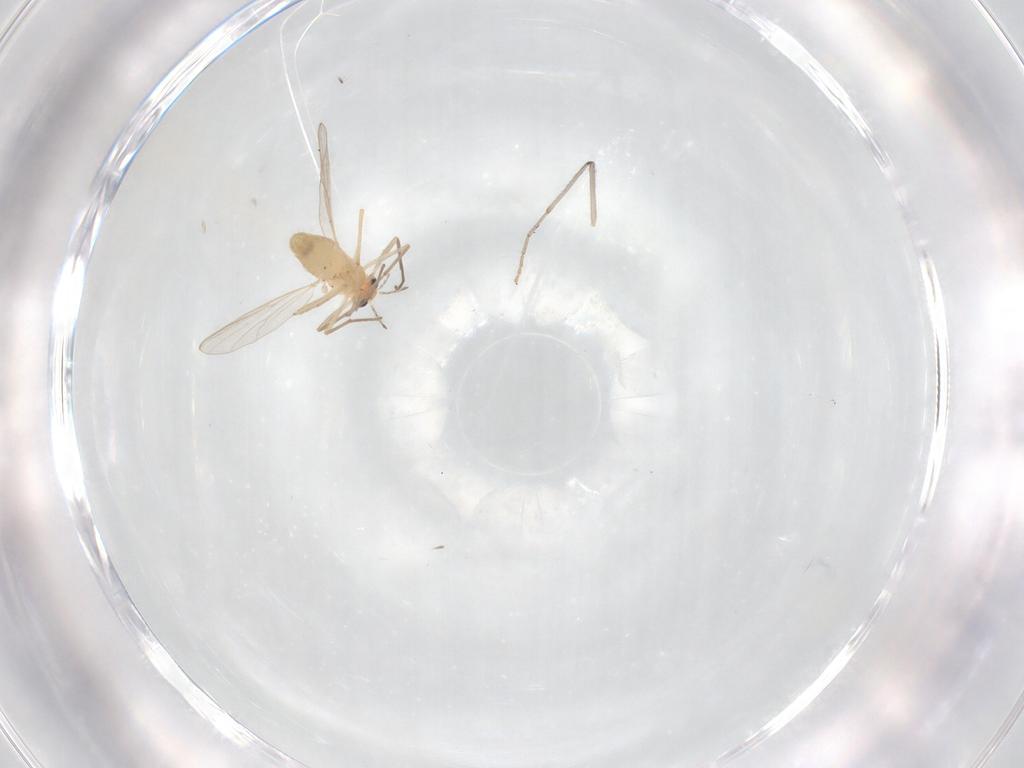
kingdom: Animalia
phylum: Arthropoda
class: Insecta
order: Diptera
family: Chironomidae
